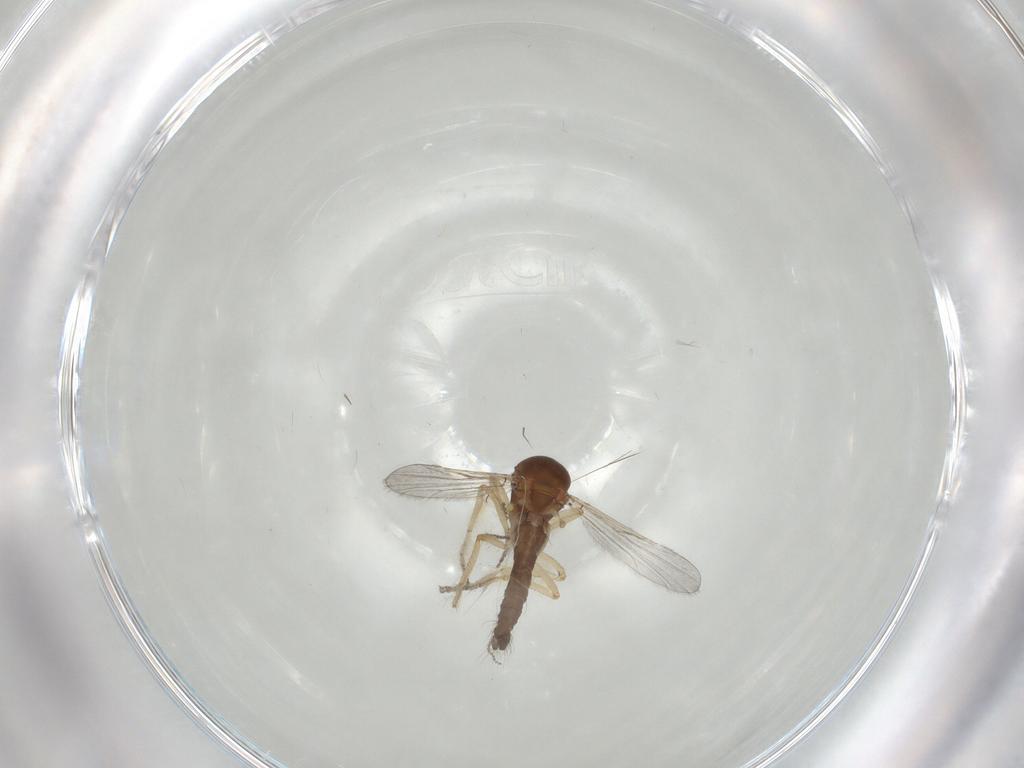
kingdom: Animalia
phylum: Arthropoda
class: Insecta
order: Diptera
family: Ceratopogonidae
